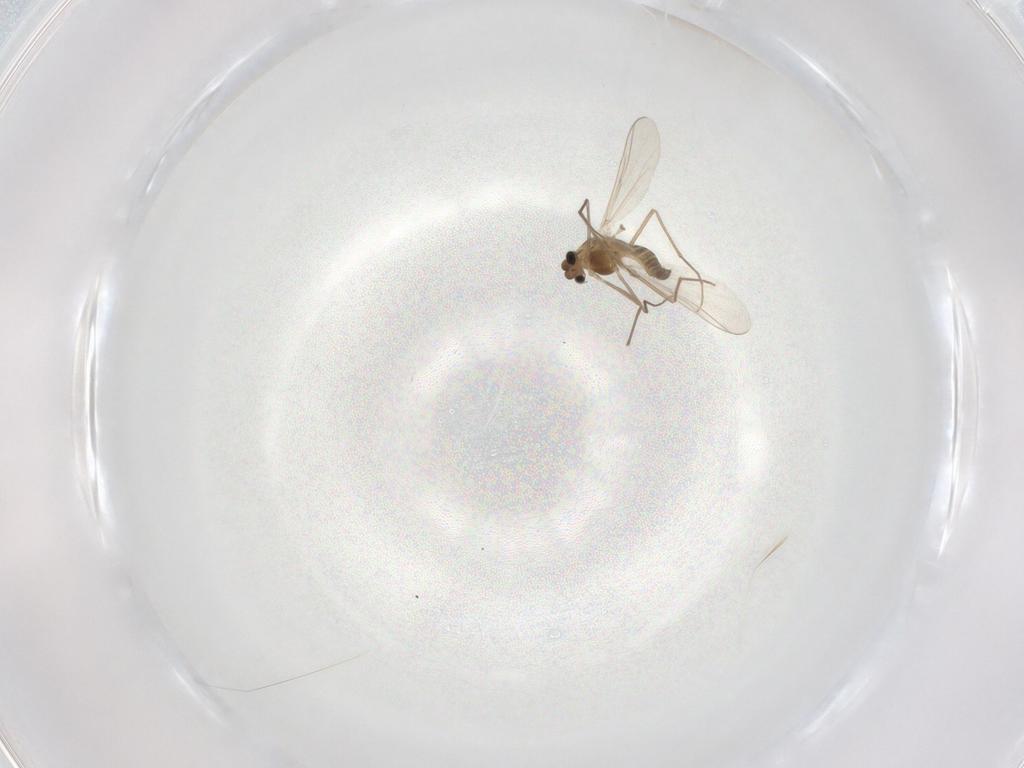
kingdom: Animalia
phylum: Arthropoda
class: Insecta
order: Diptera
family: Chironomidae
